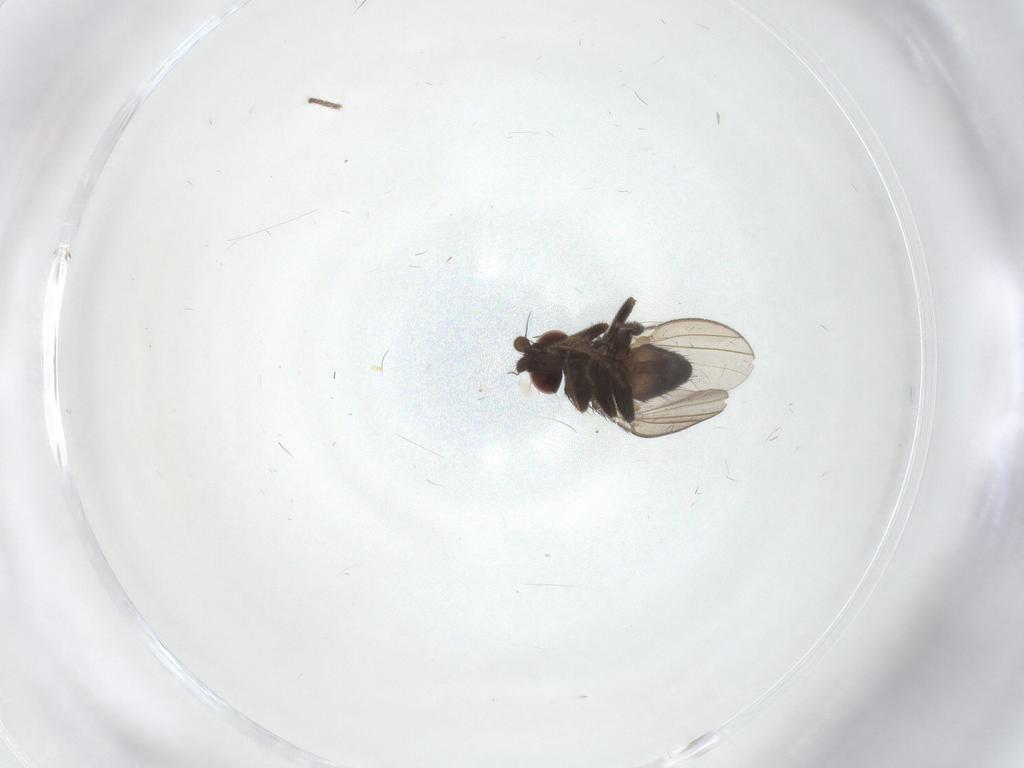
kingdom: Animalia
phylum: Arthropoda
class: Insecta
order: Diptera
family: Milichiidae
